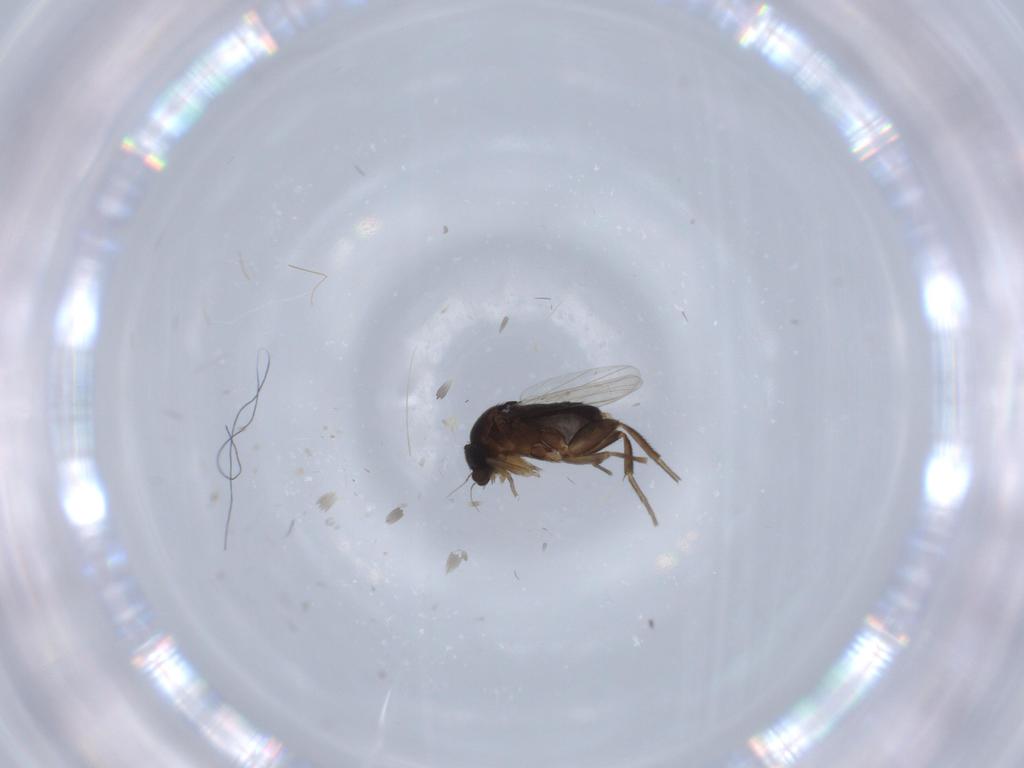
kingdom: Animalia
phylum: Arthropoda
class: Insecta
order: Diptera
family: Phoridae
